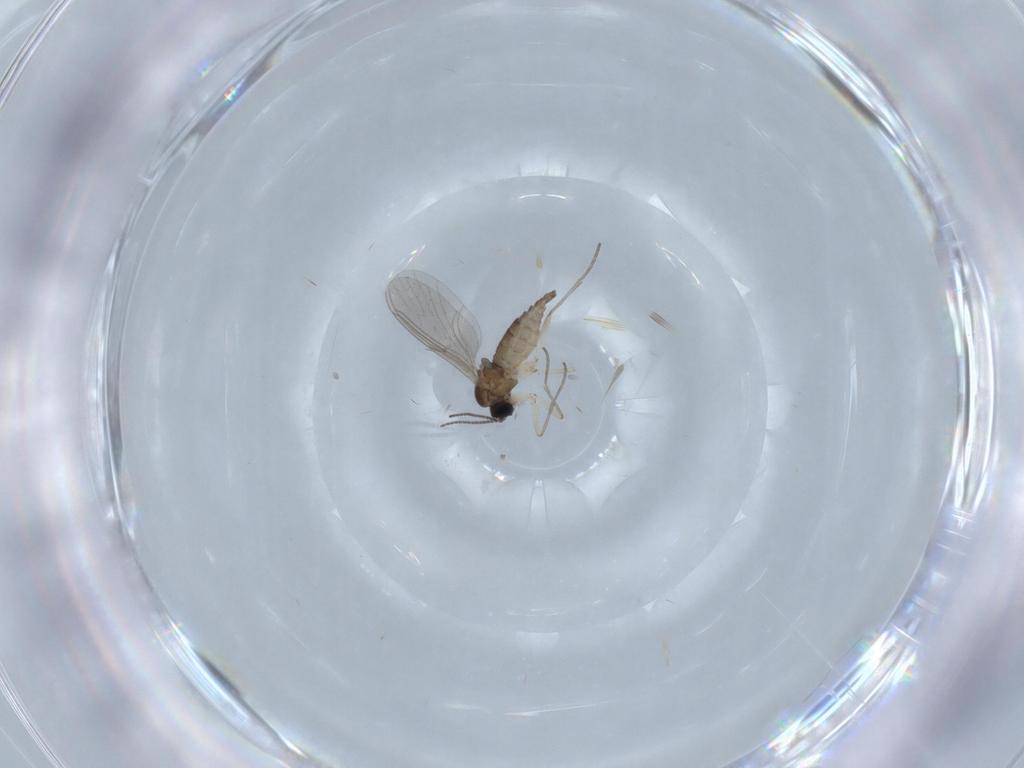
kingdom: Animalia
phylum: Arthropoda
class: Insecta
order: Diptera
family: Sciaridae
